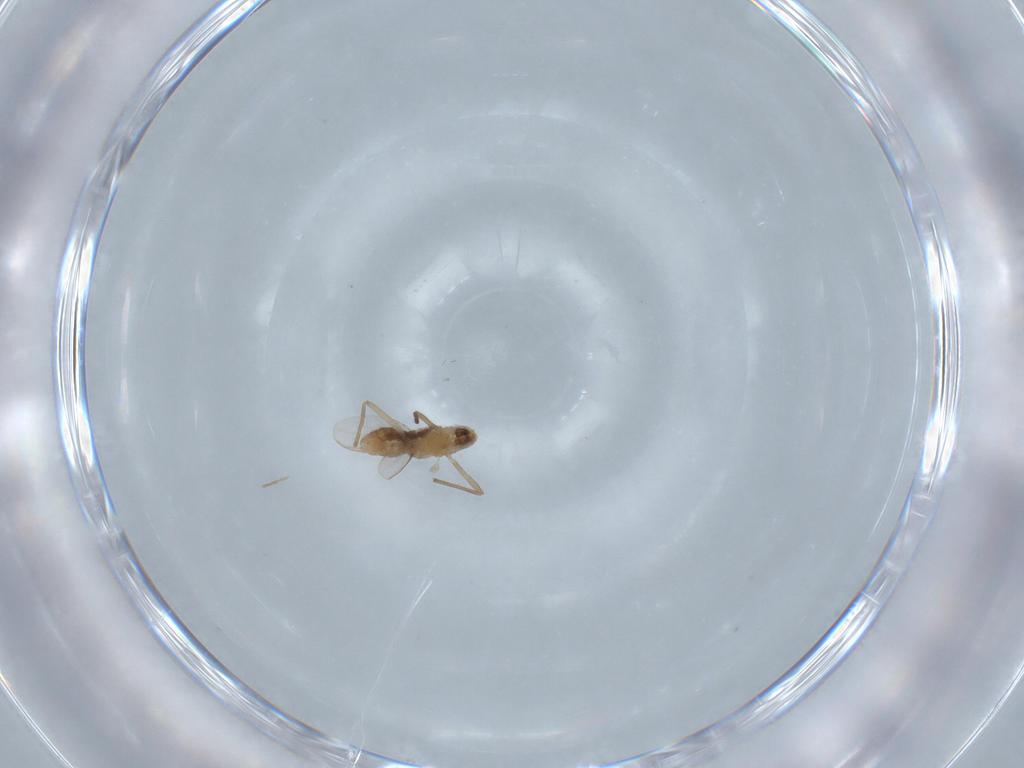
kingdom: Animalia
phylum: Arthropoda
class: Insecta
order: Diptera
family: Chironomidae
